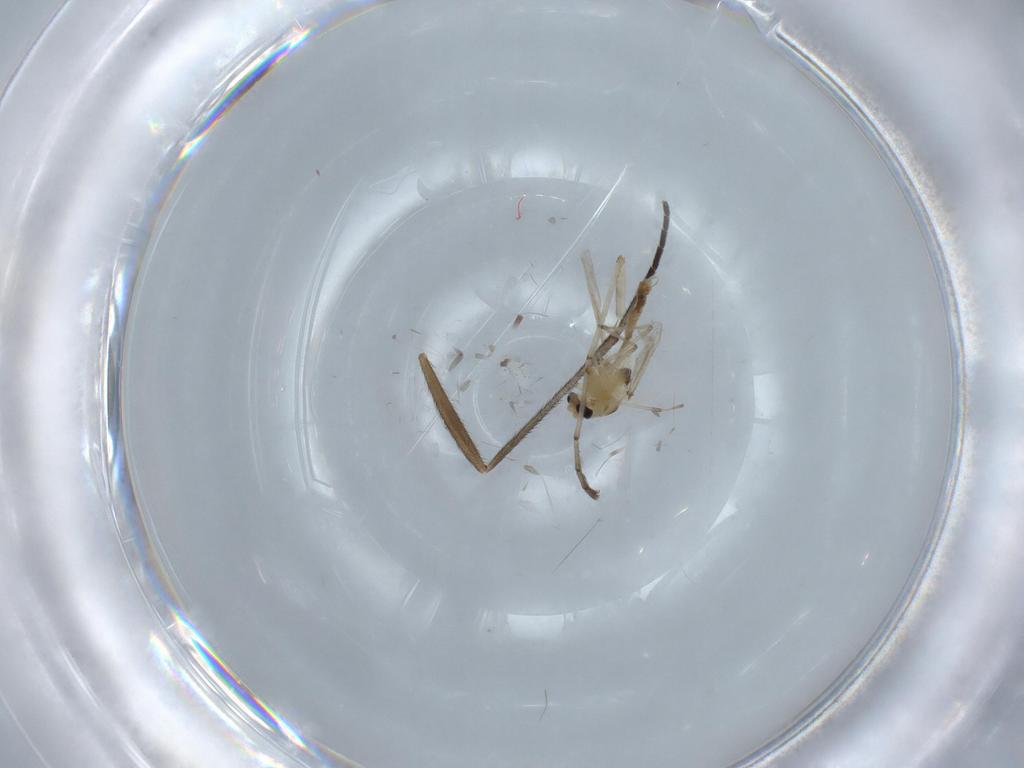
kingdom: Animalia
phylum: Arthropoda
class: Insecta
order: Diptera
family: Chironomidae
